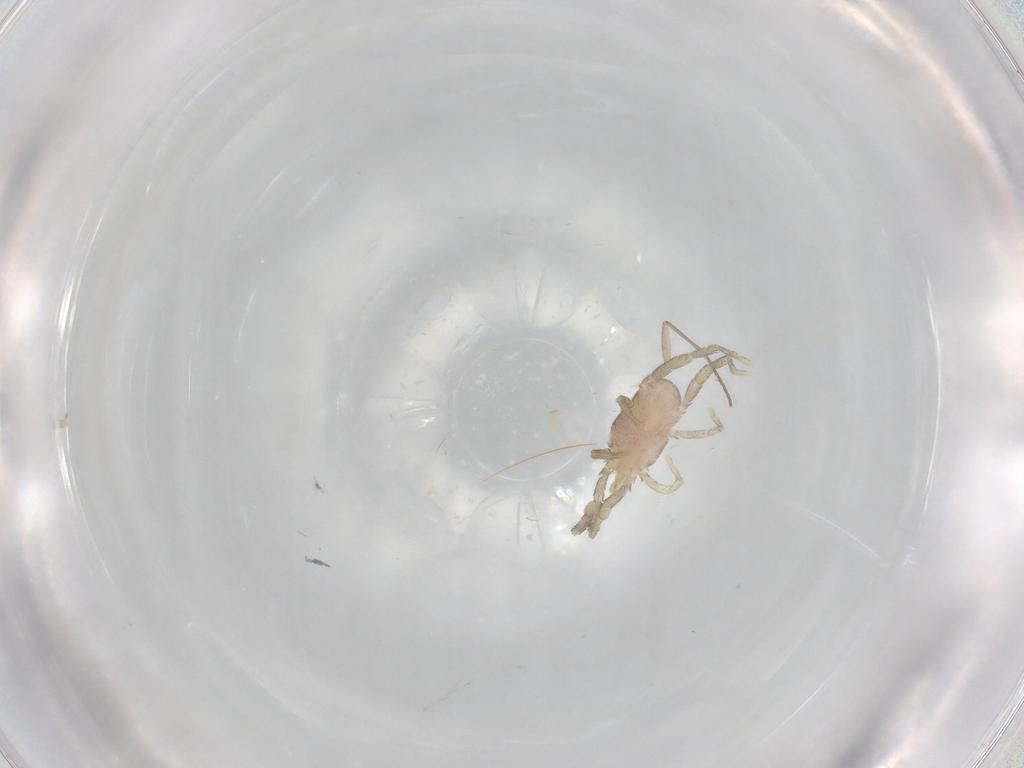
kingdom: Animalia
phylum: Arthropoda
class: Arachnida
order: Trombidiformes
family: Erythraeidae
